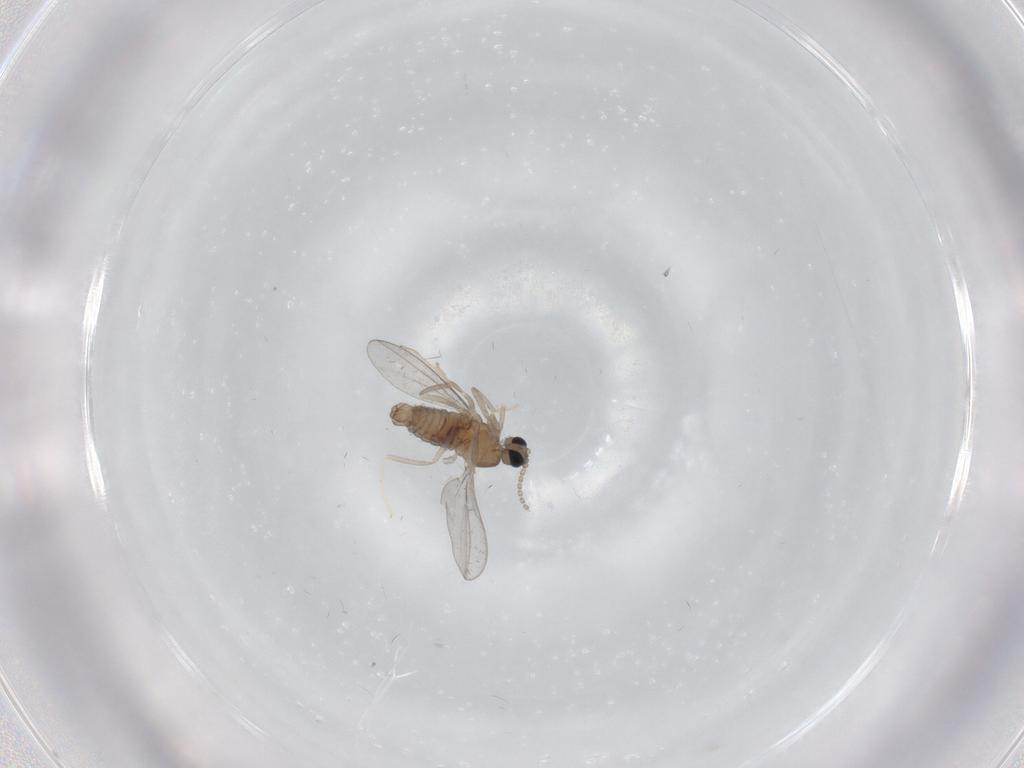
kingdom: Animalia
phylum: Arthropoda
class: Insecta
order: Diptera
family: Cecidomyiidae
